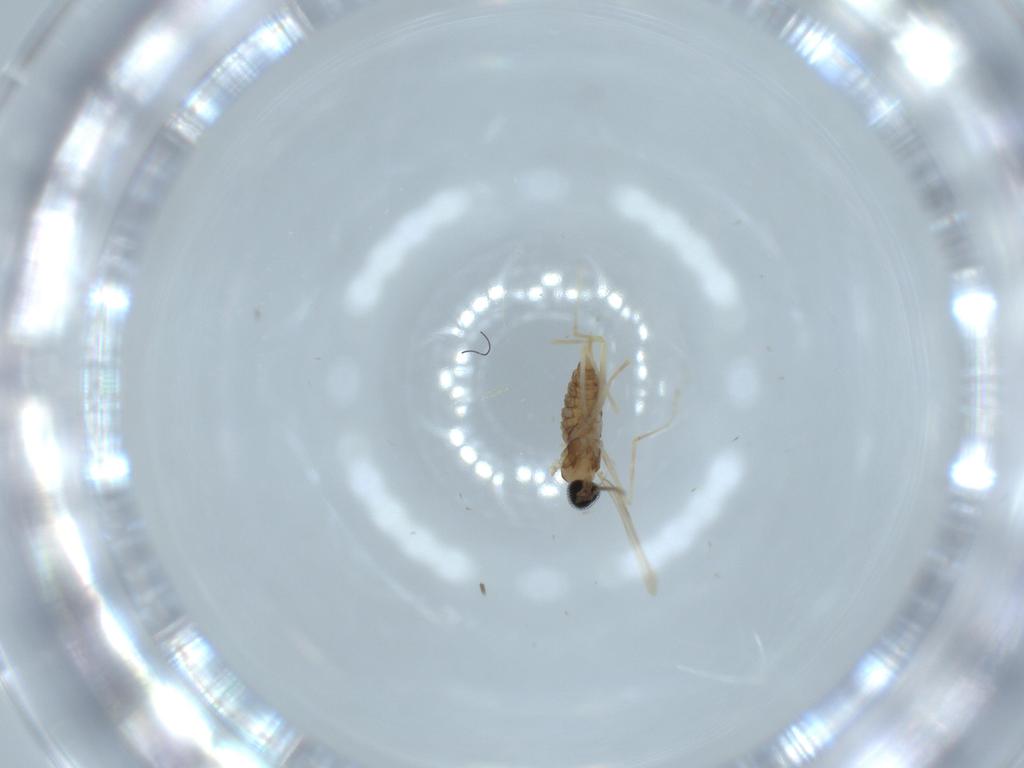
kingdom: Animalia
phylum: Arthropoda
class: Insecta
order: Diptera
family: Cecidomyiidae
